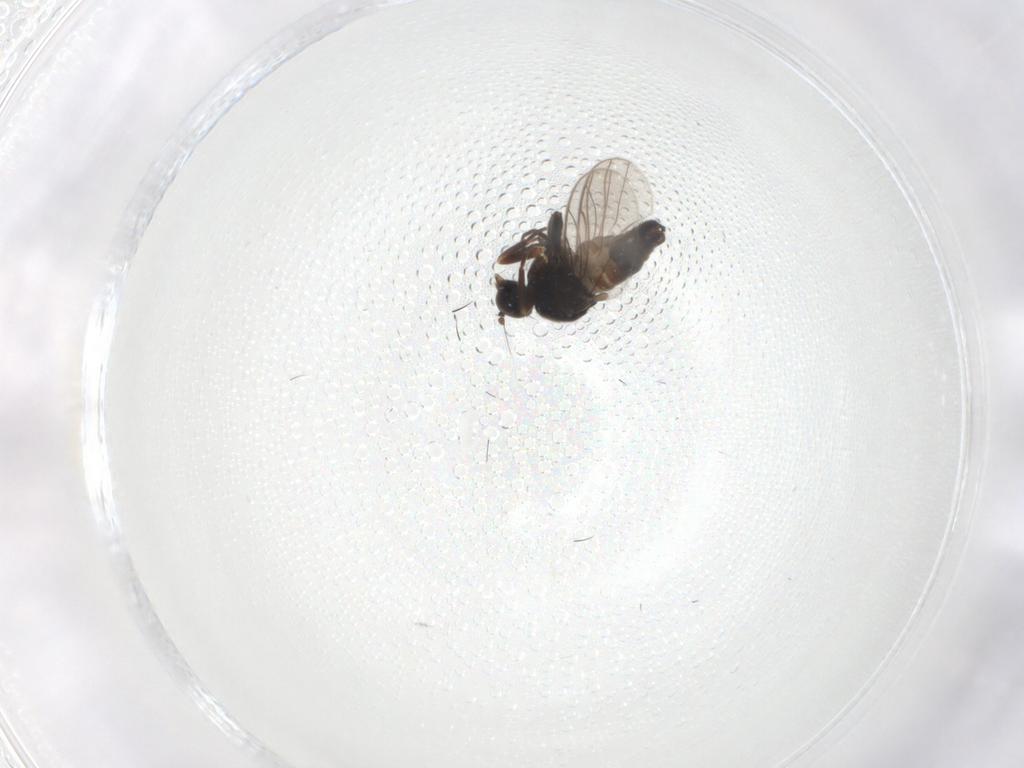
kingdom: Animalia
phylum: Arthropoda
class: Insecta
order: Diptera
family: Hybotidae
